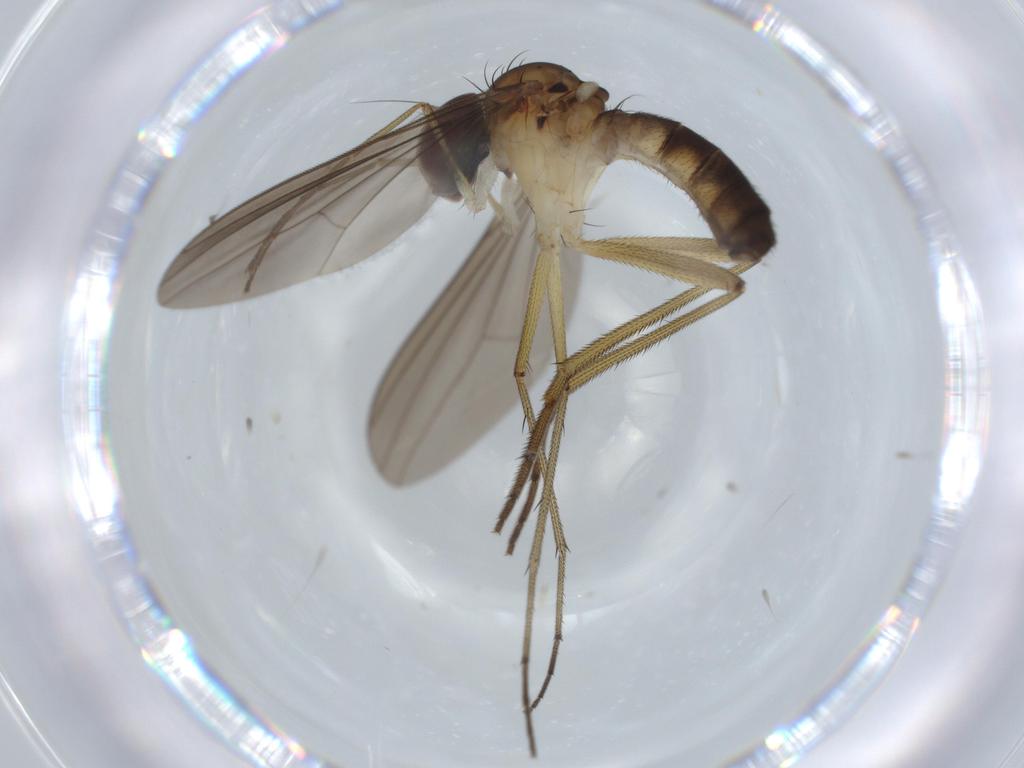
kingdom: Animalia
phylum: Arthropoda
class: Insecta
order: Diptera
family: Cecidomyiidae
